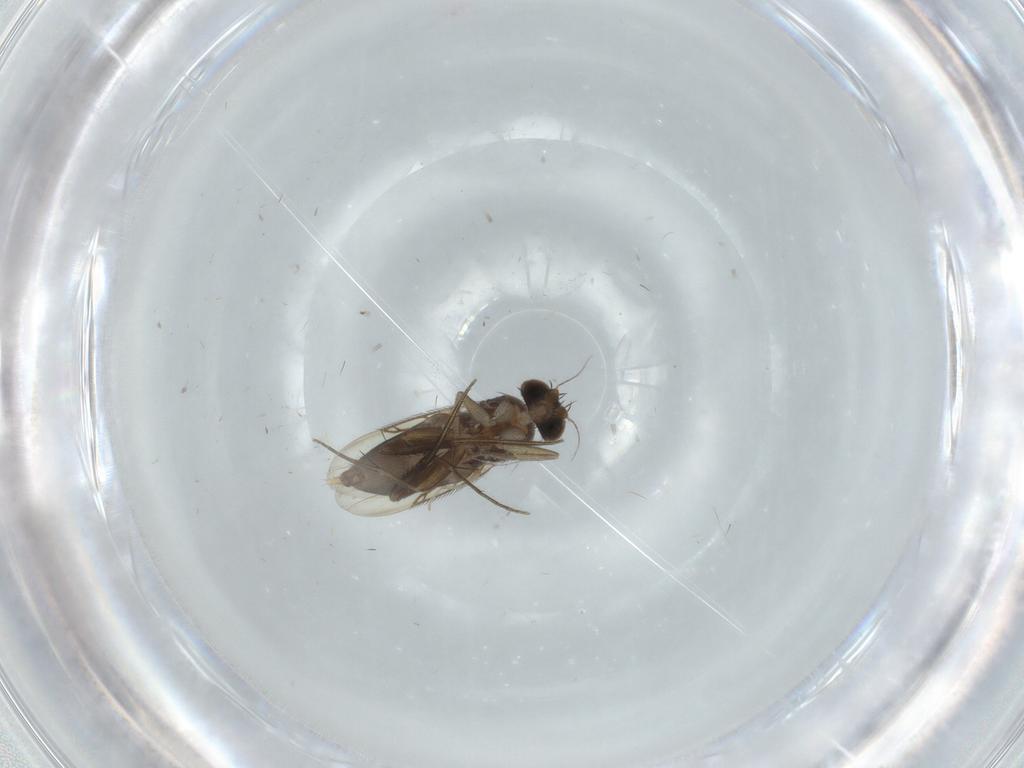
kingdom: Animalia
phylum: Arthropoda
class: Insecta
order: Diptera
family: Phoridae
